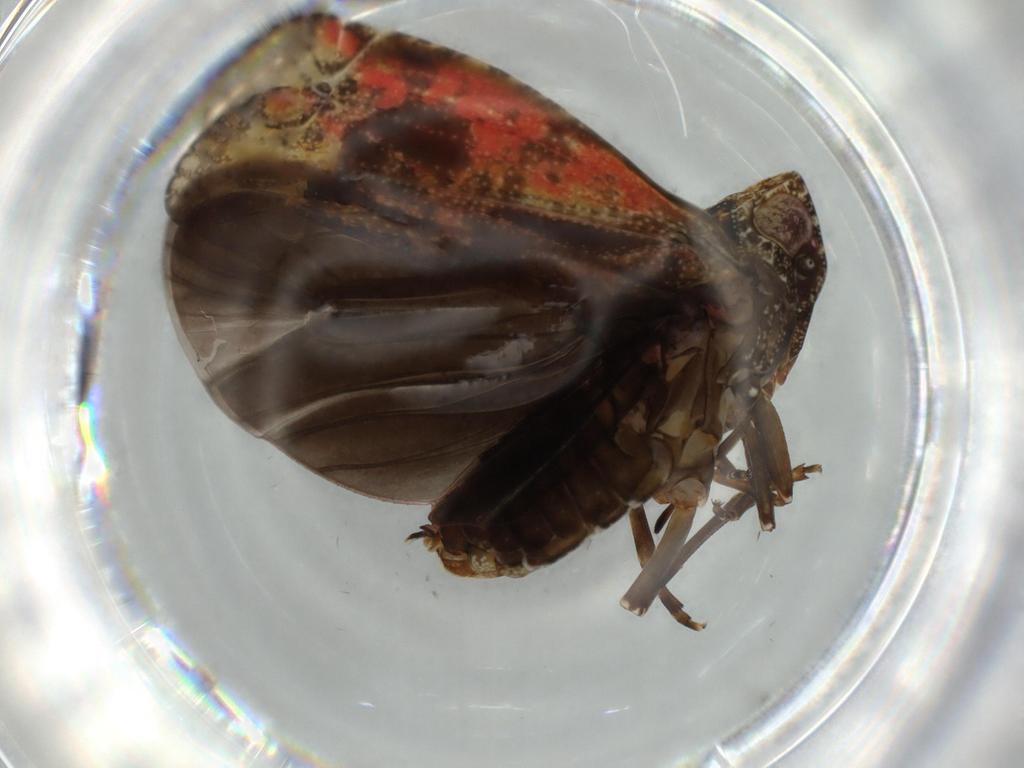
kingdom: Animalia
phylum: Arthropoda
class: Insecta
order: Hemiptera
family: Achilidae
